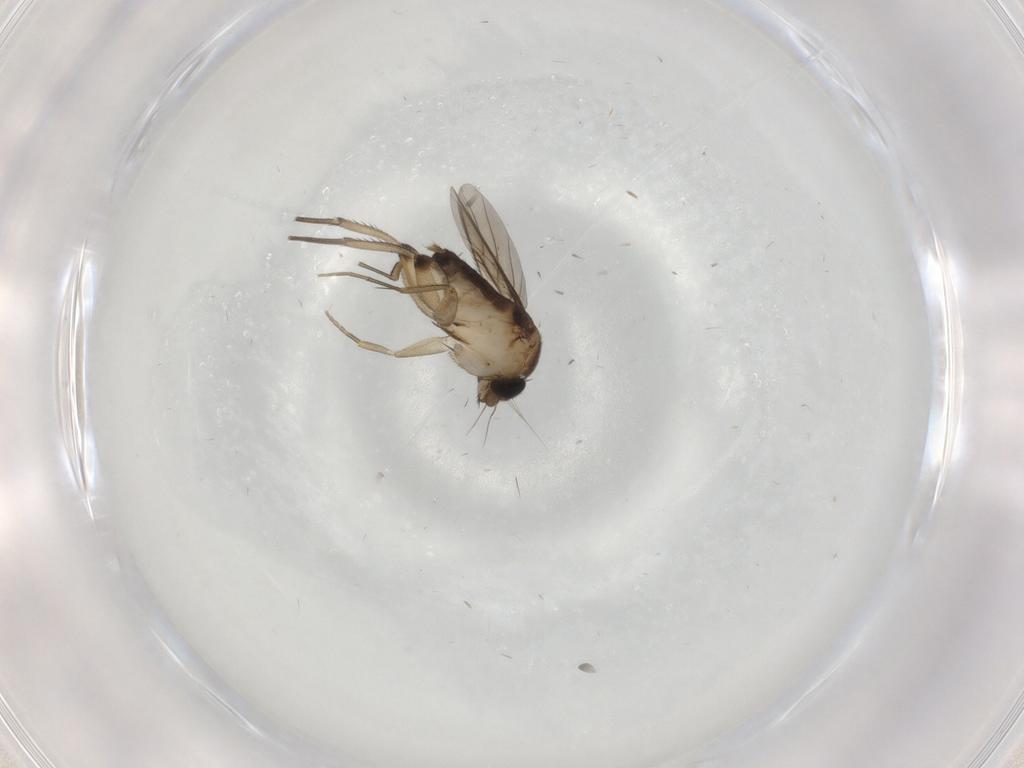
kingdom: Animalia
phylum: Arthropoda
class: Insecta
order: Diptera
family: Phoridae
